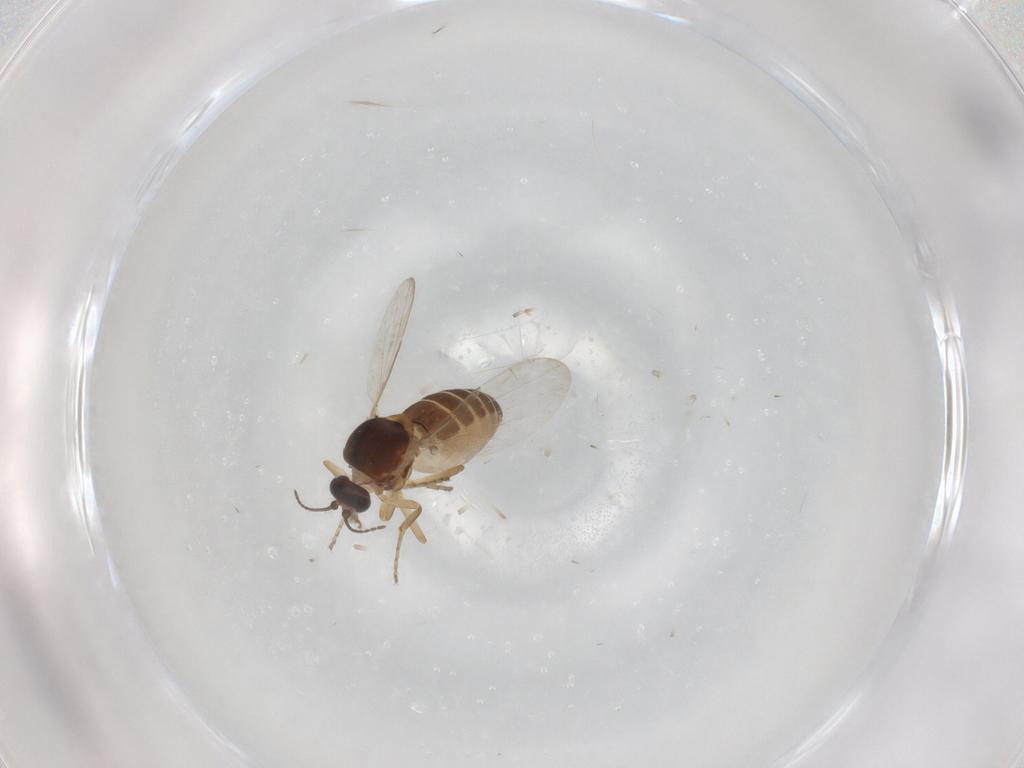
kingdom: Animalia
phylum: Arthropoda
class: Insecta
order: Diptera
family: Ceratopogonidae
